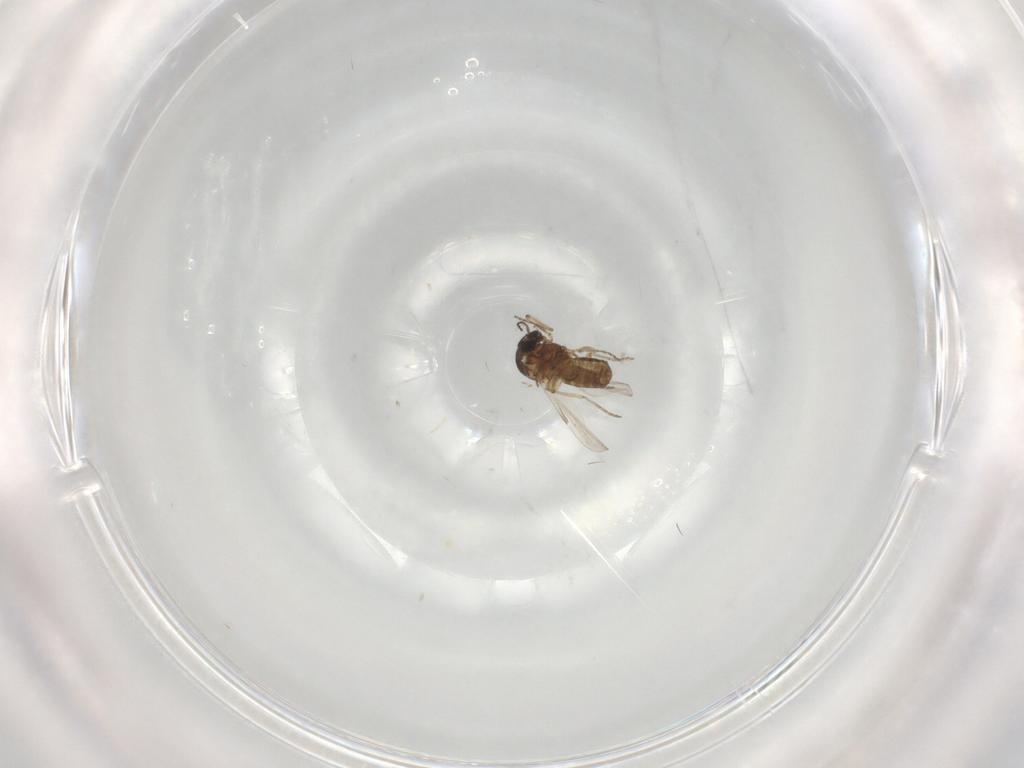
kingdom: Animalia
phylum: Arthropoda
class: Insecta
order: Diptera
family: Ceratopogonidae
